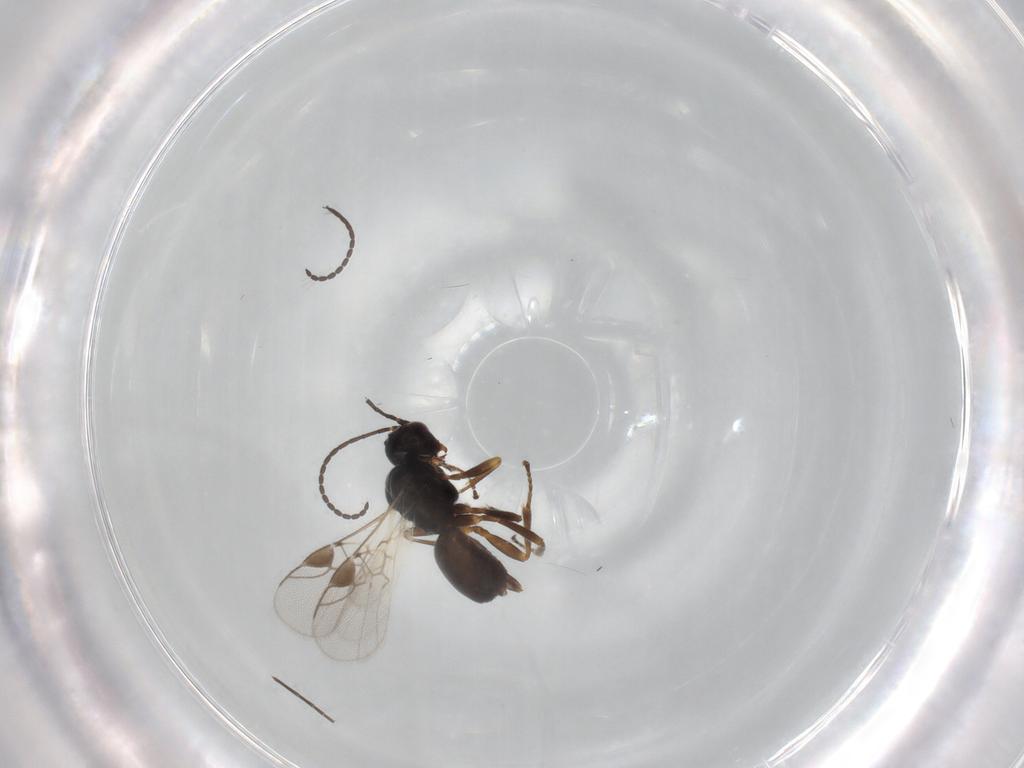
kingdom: Animalia
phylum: Arthropoda
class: Insecta
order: Hymenoptera
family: Braconidae
